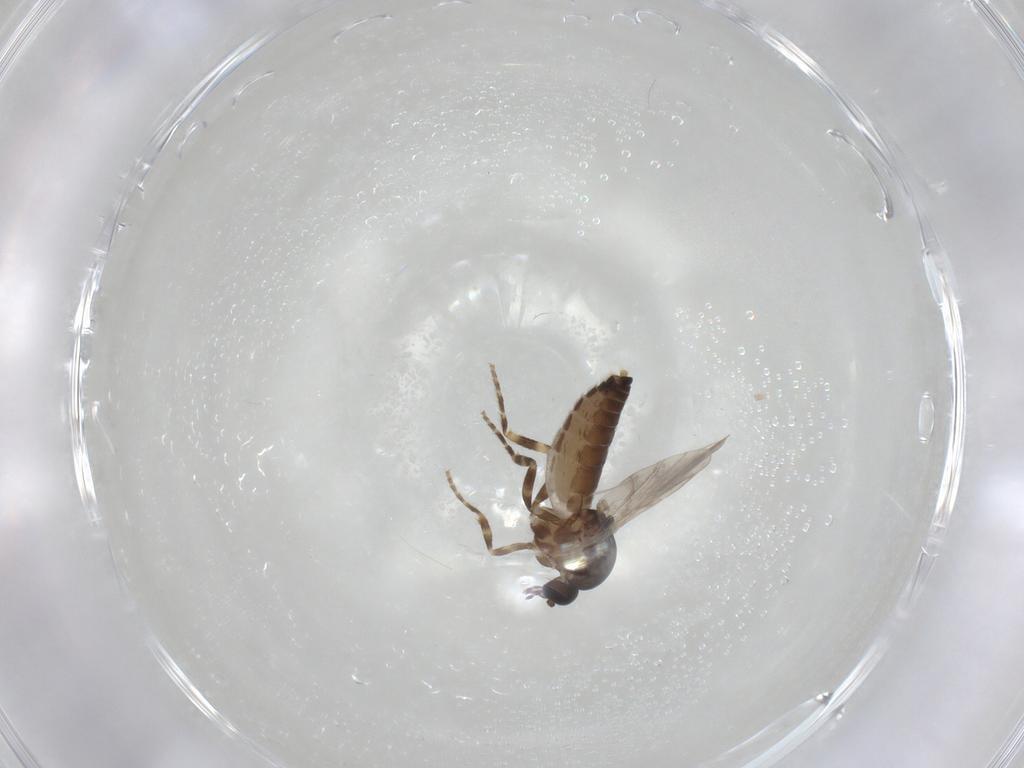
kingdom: Animalia
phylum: Arthropoda
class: Insecta
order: Diptera
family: Ceratopogonidae
